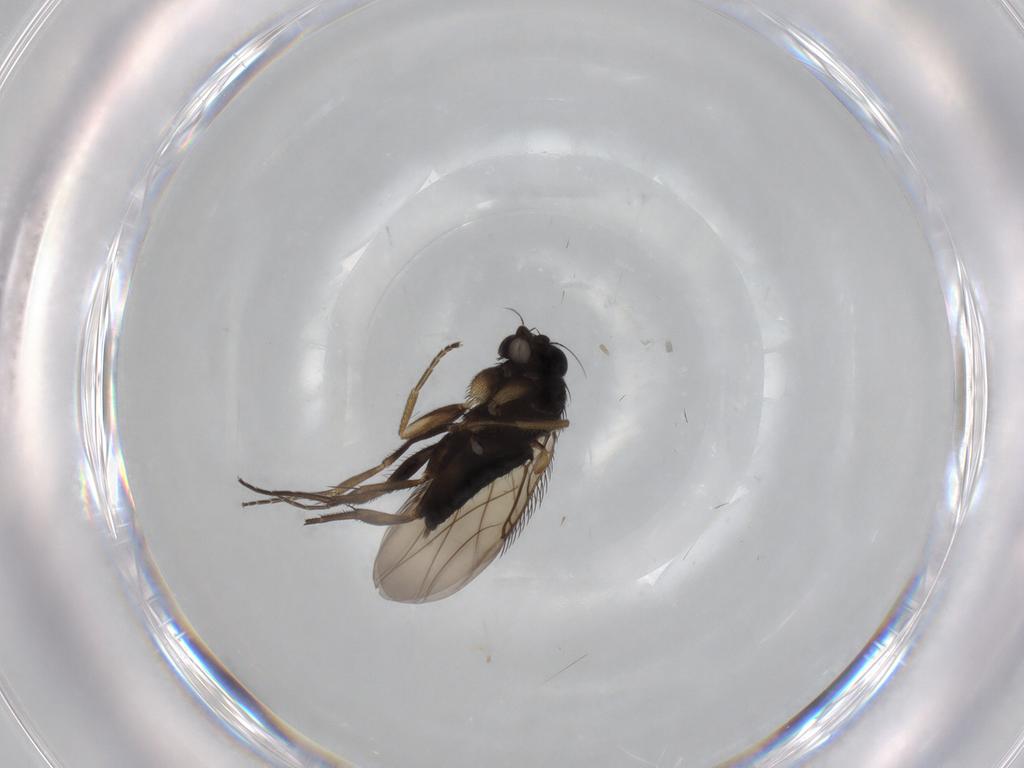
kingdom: Animalia
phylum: Arthropoda
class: Insecta
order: Diptera
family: Phoridae
